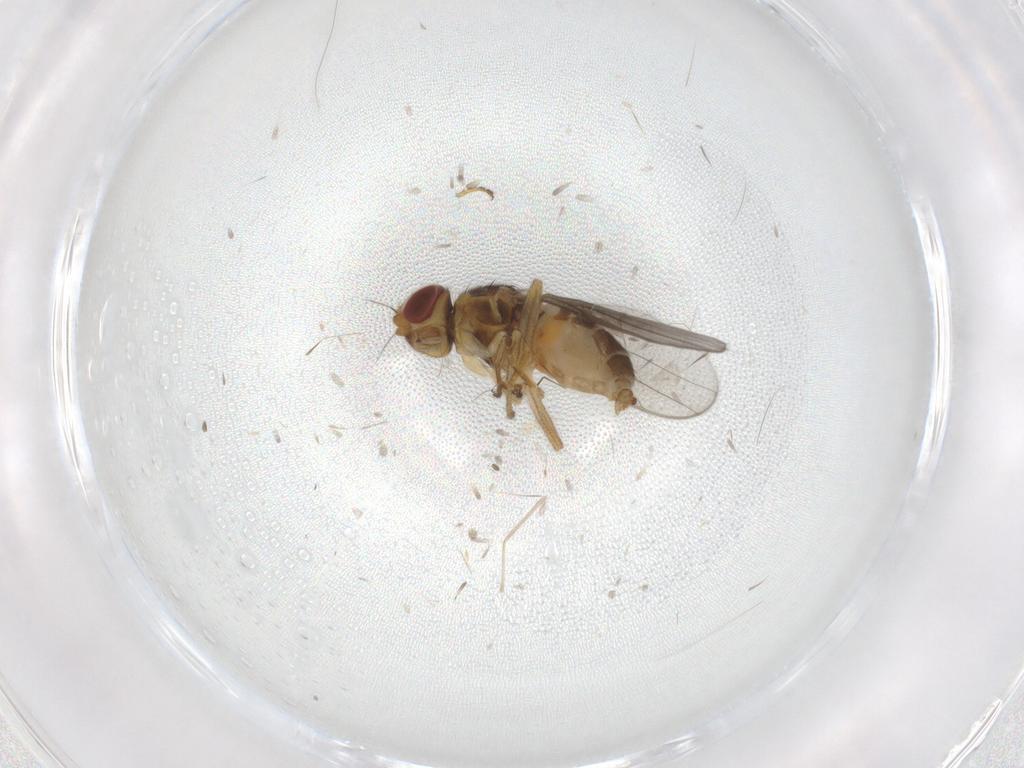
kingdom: Animalia
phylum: Arthropoda
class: Insecta
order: Diptera
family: Chloropidae
